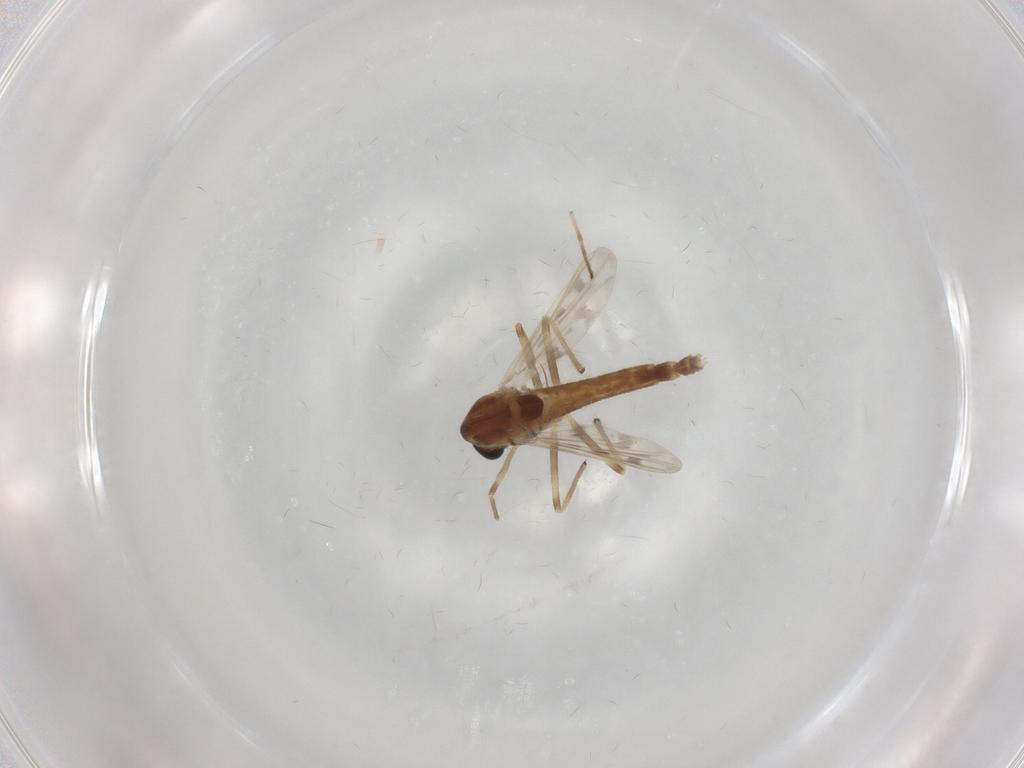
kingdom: Animalia
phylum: Arthropoda
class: Insecta
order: Diptera
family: Chironomidae
